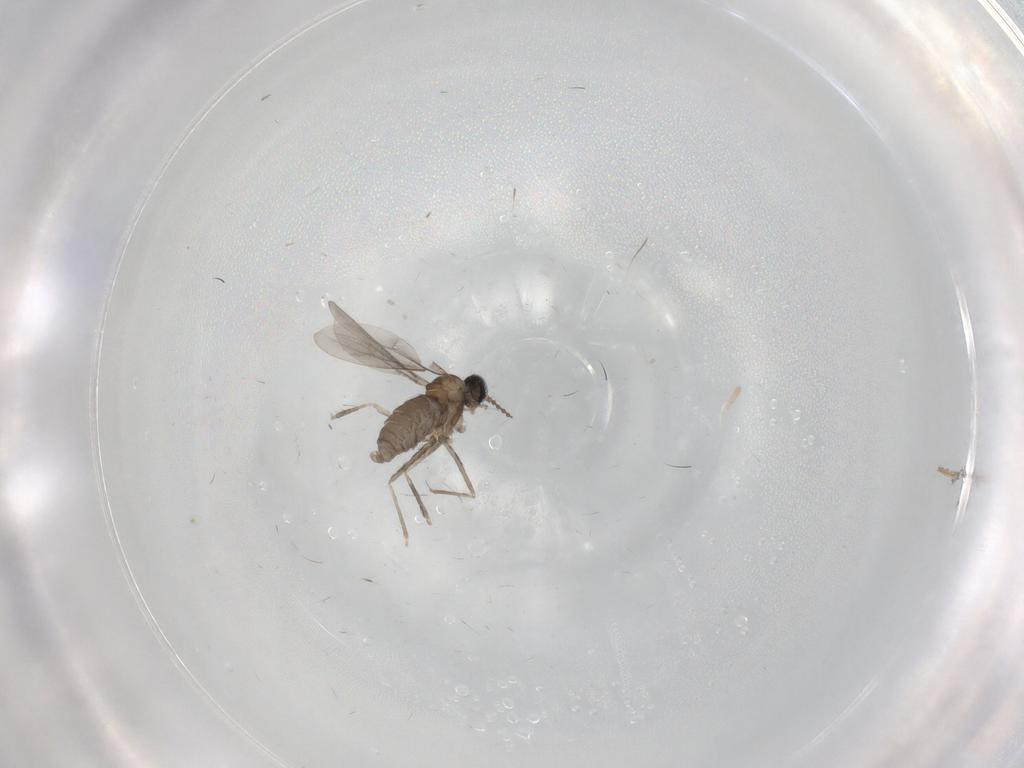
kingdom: Animalia
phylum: Arthropoda
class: Insecta
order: Diptera
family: Cecidomyiidae
